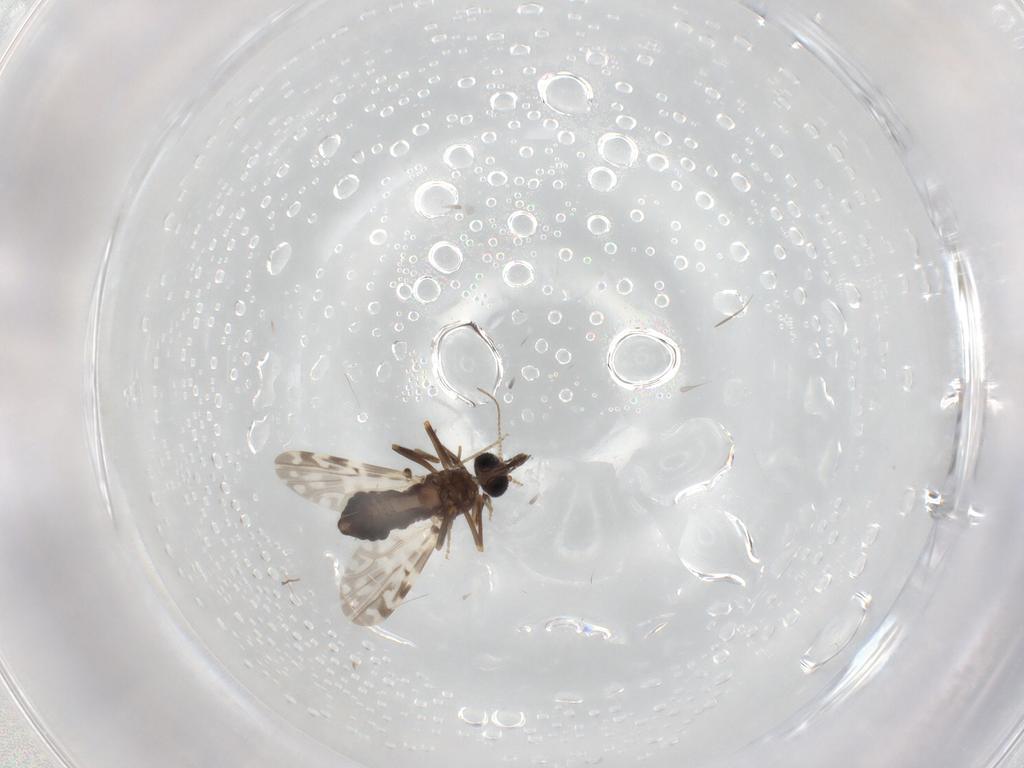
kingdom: Animalia
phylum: Arthropoda
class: Insecta
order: Diptera
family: Ceratopogonidae
